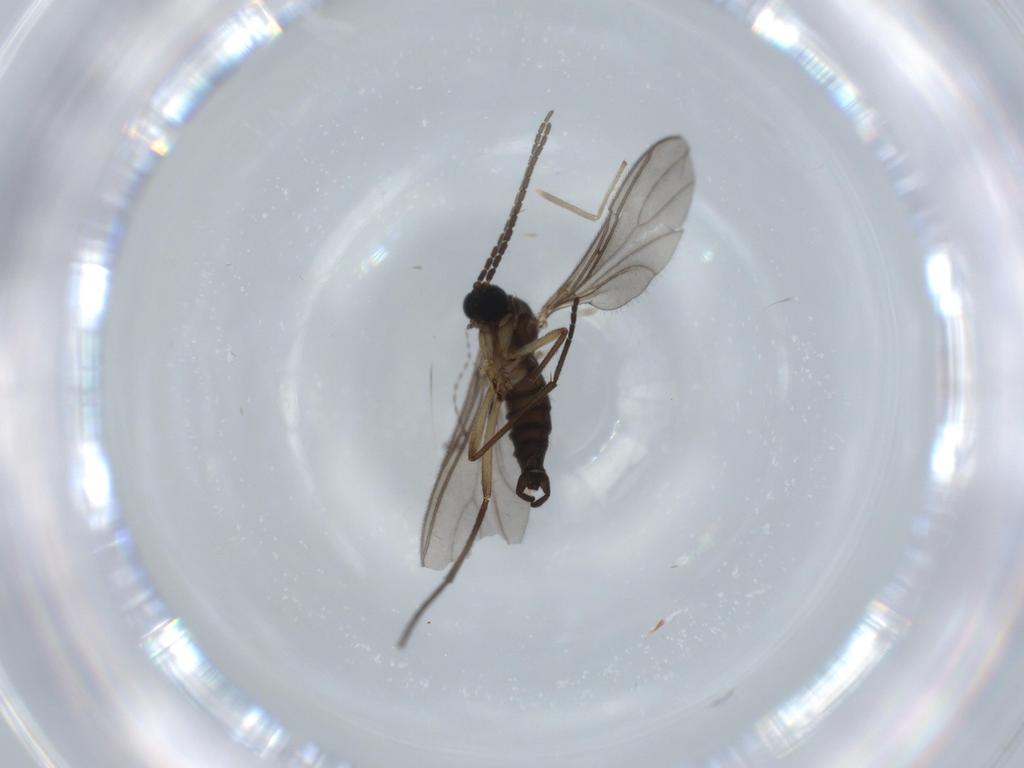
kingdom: Animalia
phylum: Arthropoda
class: Insecta
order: Diptera
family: Sciaridae
